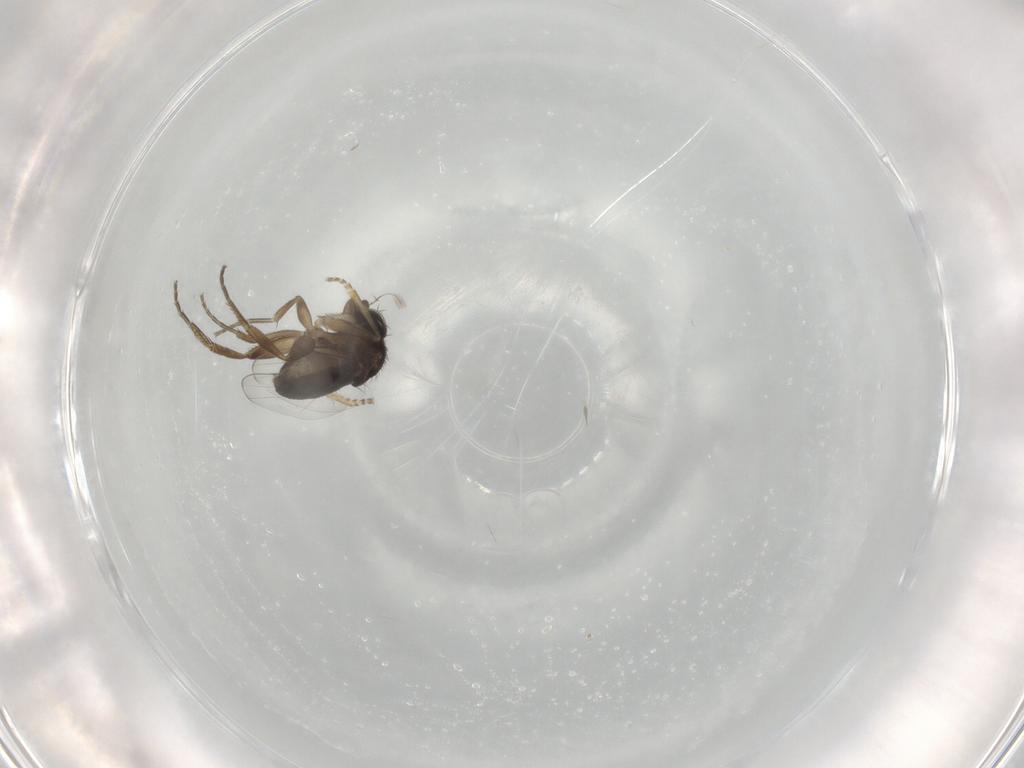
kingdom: Animalia
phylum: Arthropoda
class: Insecta
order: Diptera
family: Phoridae
